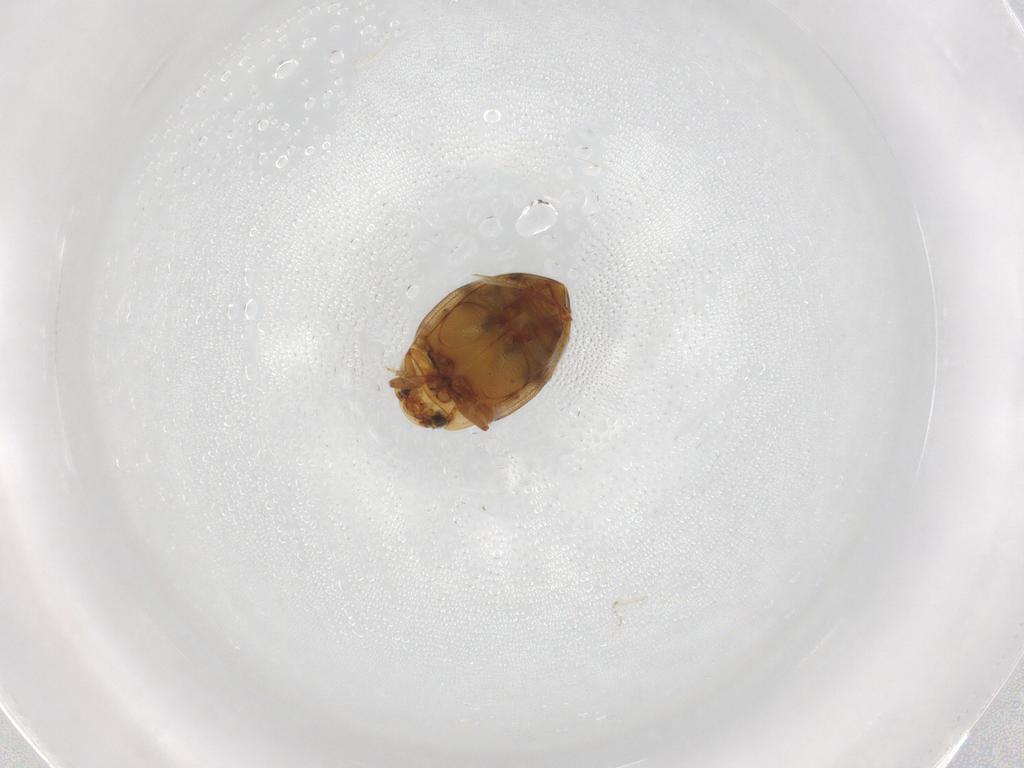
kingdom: Animalia
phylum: Arthropoda
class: Insecta
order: Coleoptera
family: Dytiscidae
